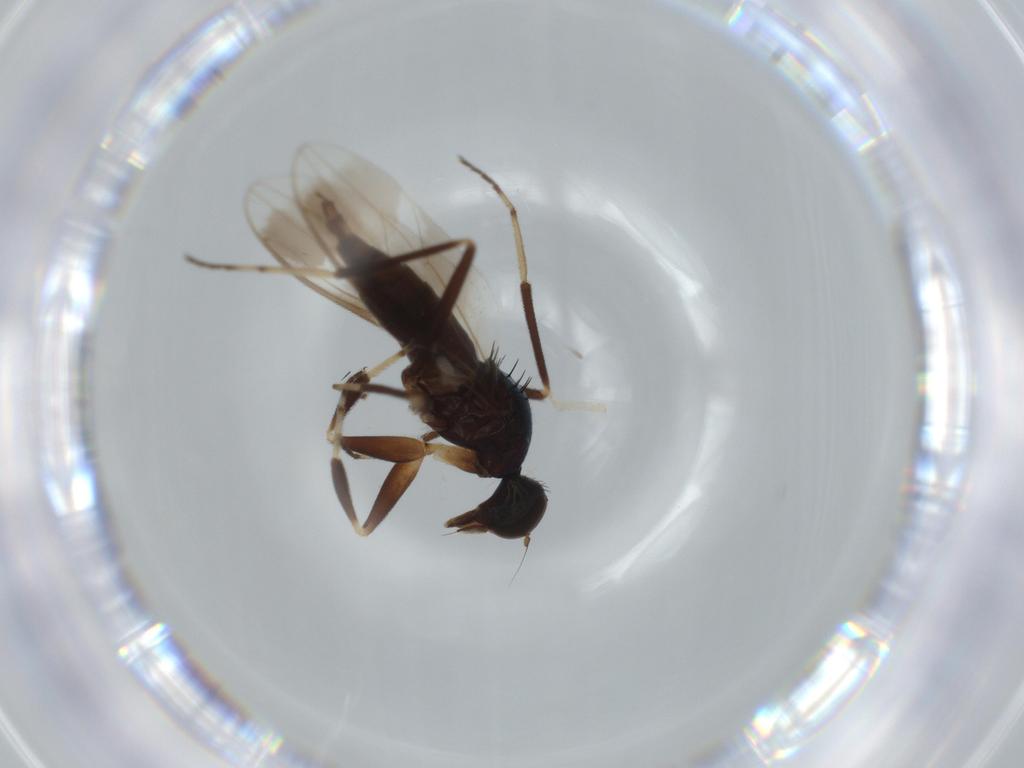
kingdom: Animalia
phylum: Arthropoda
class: Insecta
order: Diptera
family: Hybotidae
